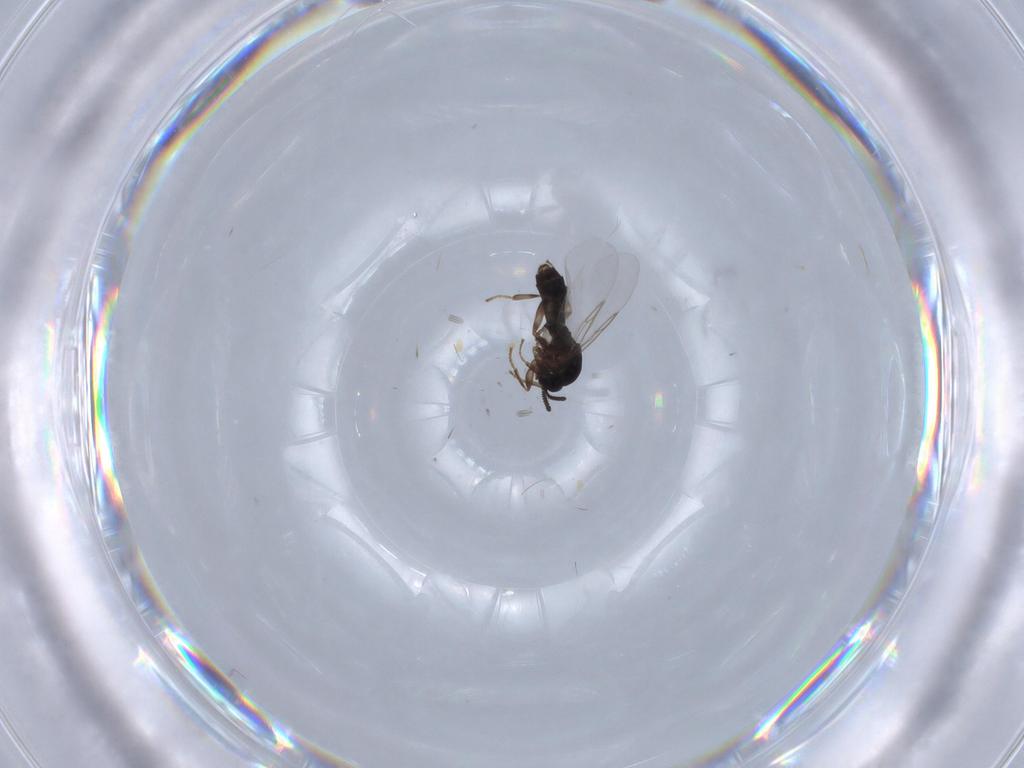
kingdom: Animalia
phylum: Arthropoda
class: Insecta
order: Diptera
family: Scatopsidae
